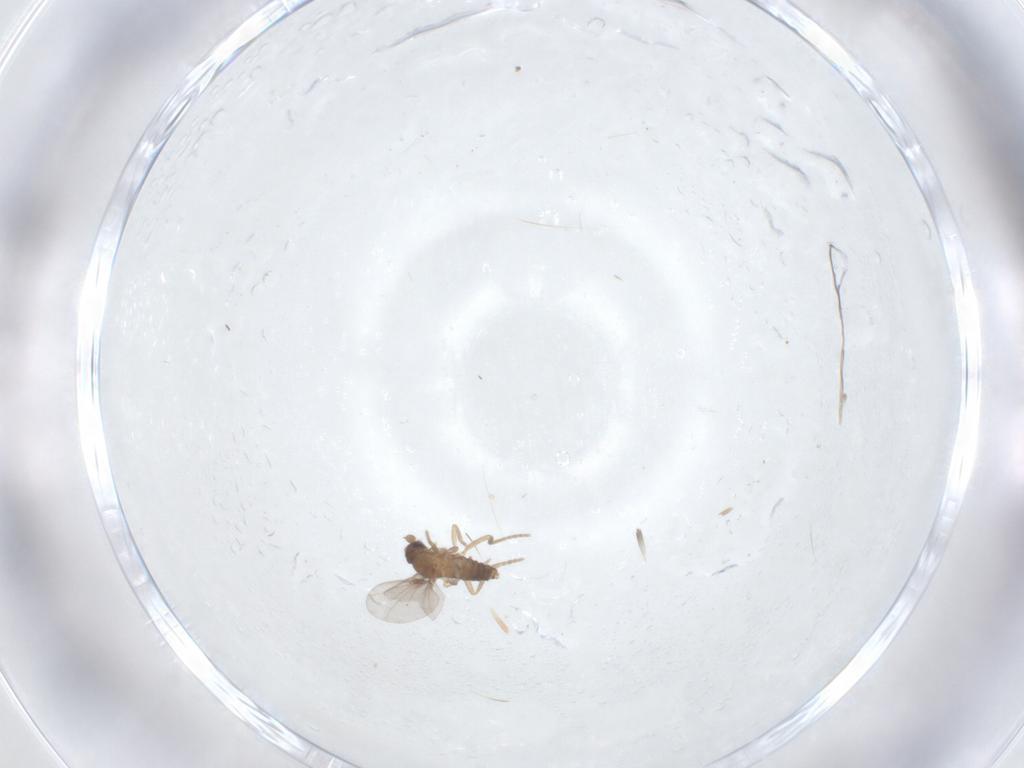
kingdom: Animalia
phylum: Arthropoda
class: Insecta
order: Diptera
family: Phoridae
